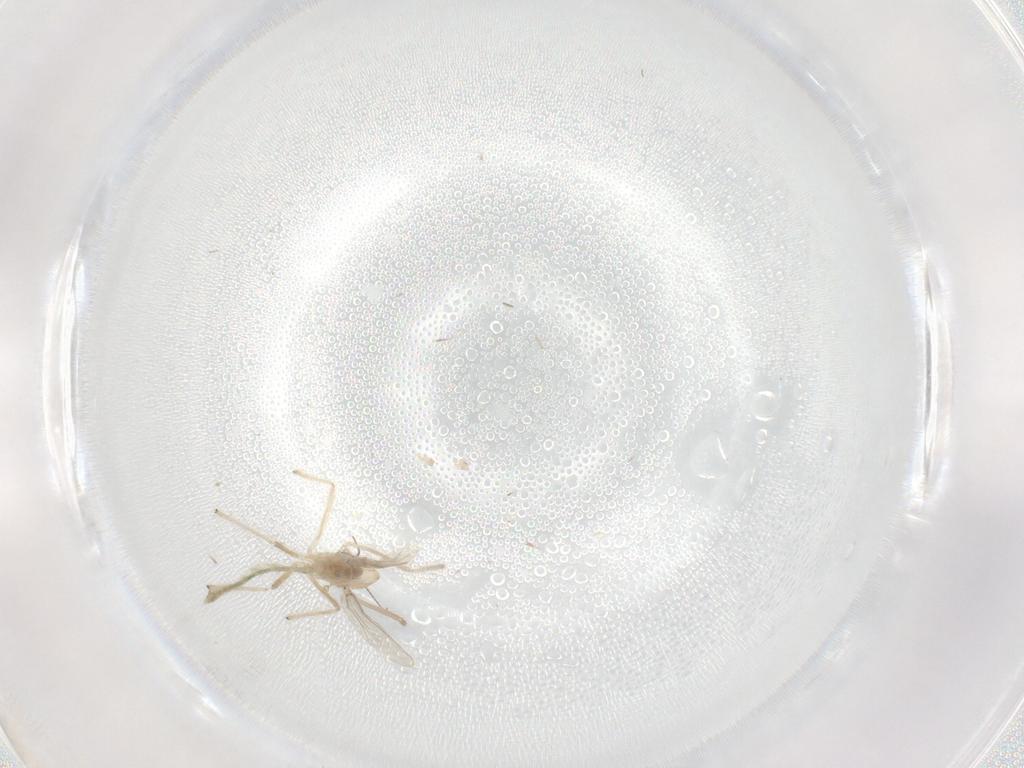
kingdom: Animalia
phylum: Arthropoda
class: Insecta
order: Diptera
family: Chironomidae
